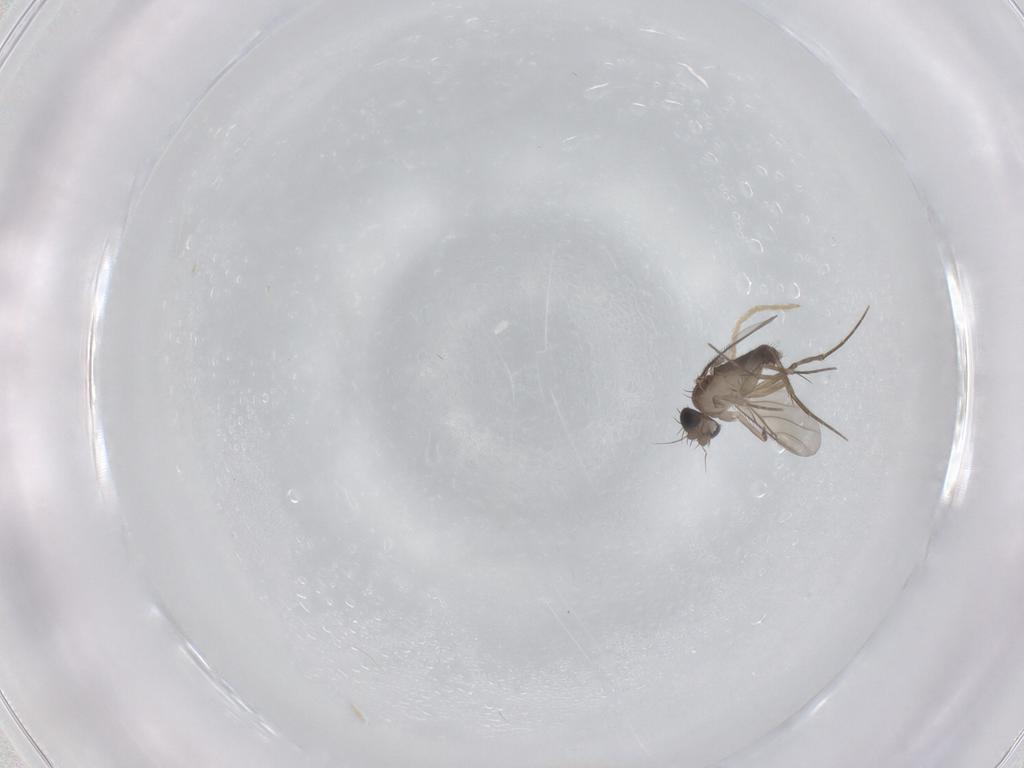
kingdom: Animalia
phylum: Arthropoda
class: Insecta
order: Diptera
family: Chironomidae
